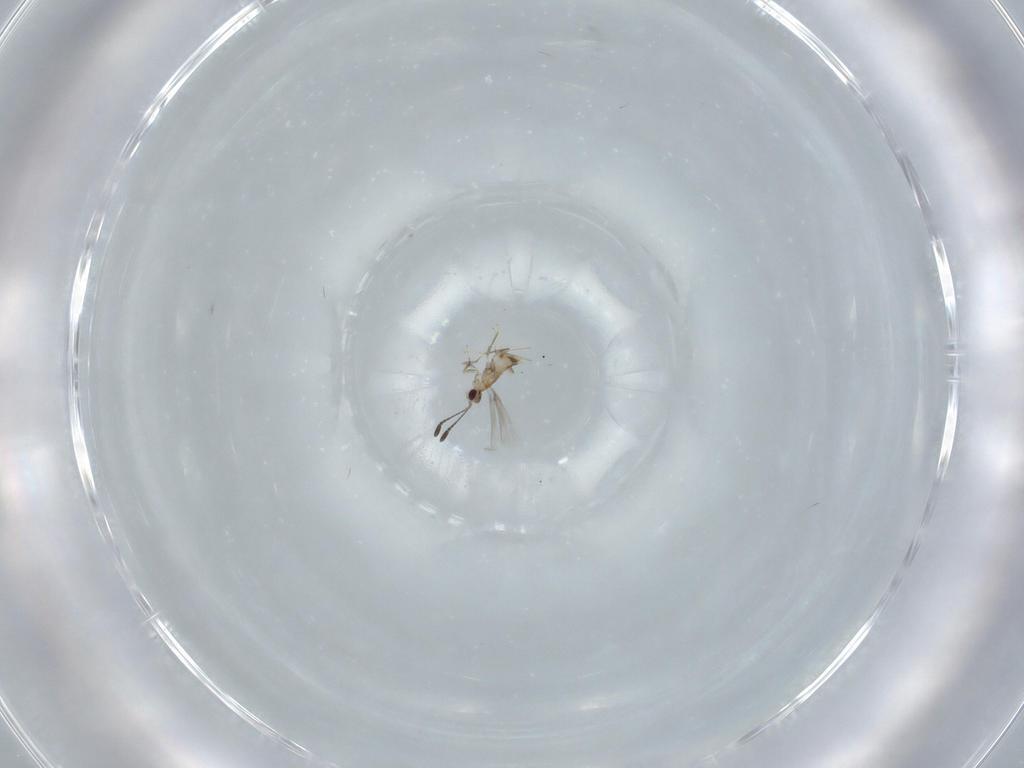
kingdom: Animalia
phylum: Arthropoda
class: Insecta
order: Hymenoptera
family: Mymaridae
